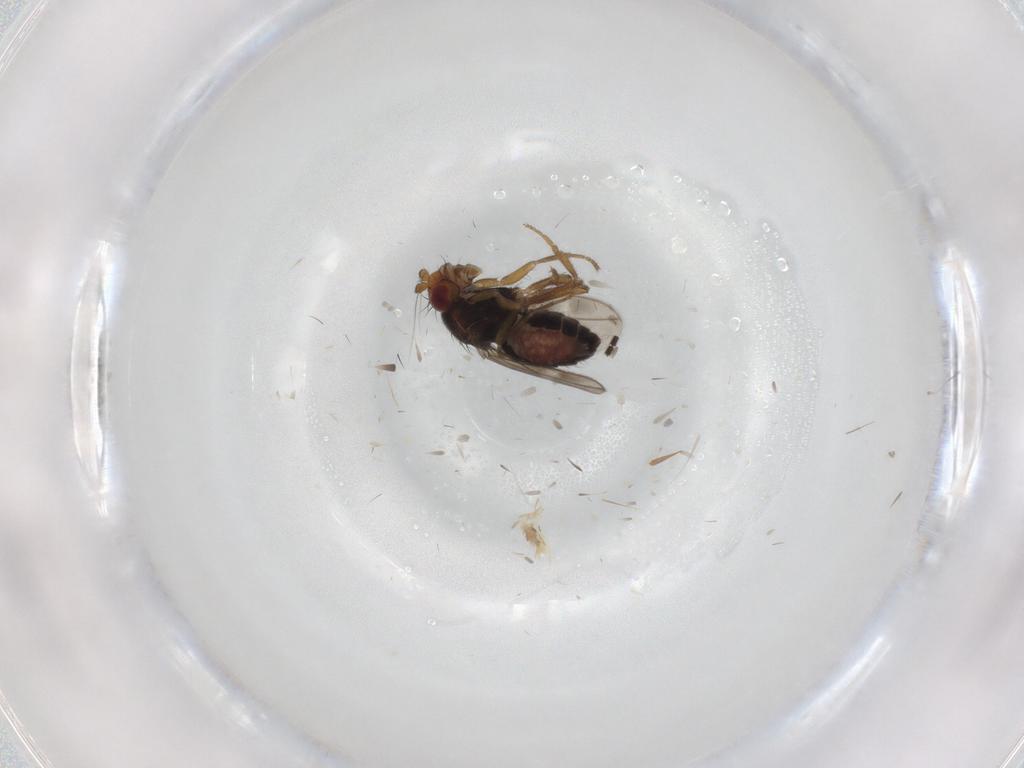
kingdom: Animalia
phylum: Arthropoda
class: Insecta
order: Diptera
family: Sphaeroceridae
